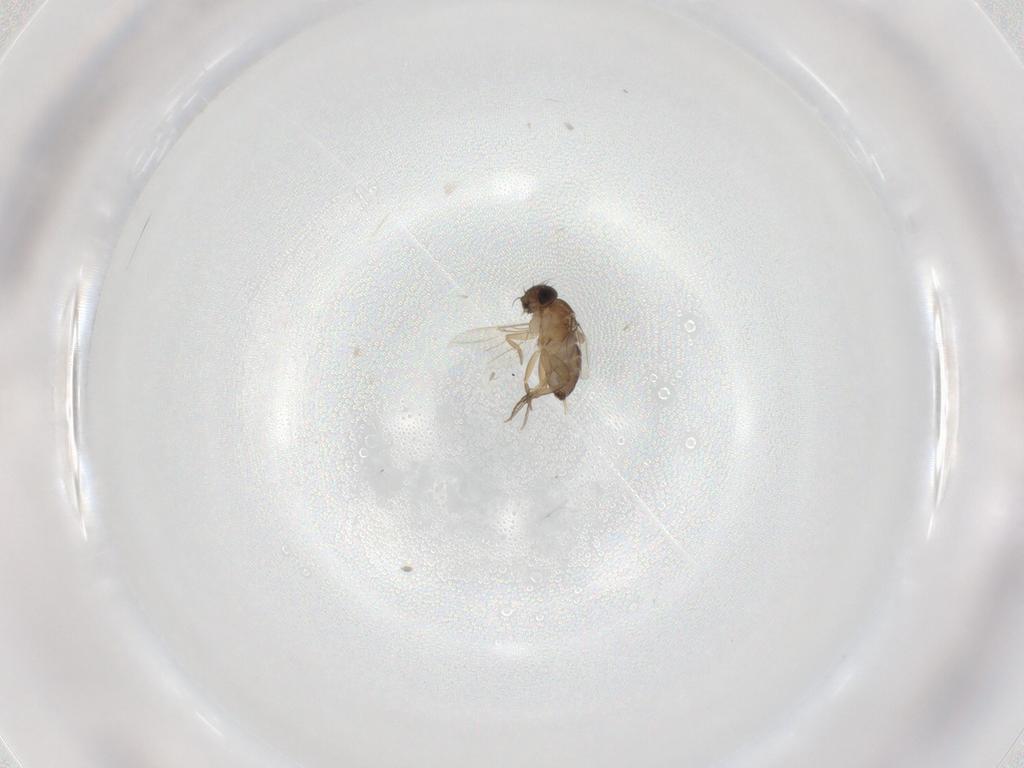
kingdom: Animalia
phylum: Arthropoda
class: Insecta
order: Diptera
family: Phoridae
